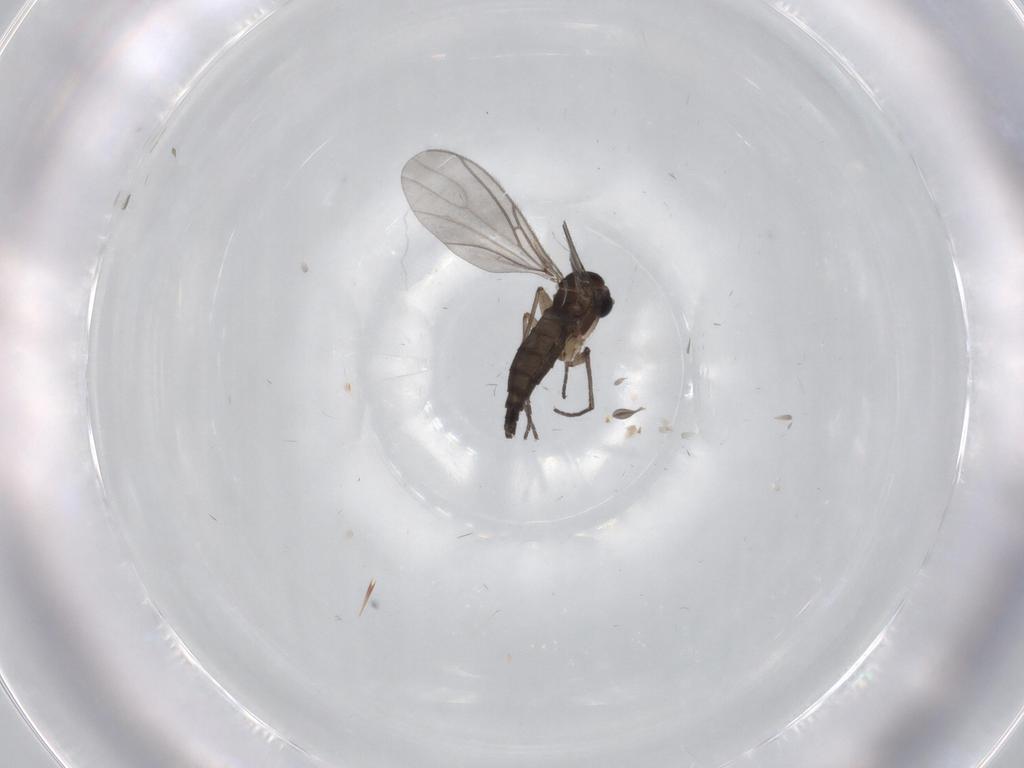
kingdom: Animalia
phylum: Arthropoda
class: Insecta
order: Diptera
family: Sciaridae
